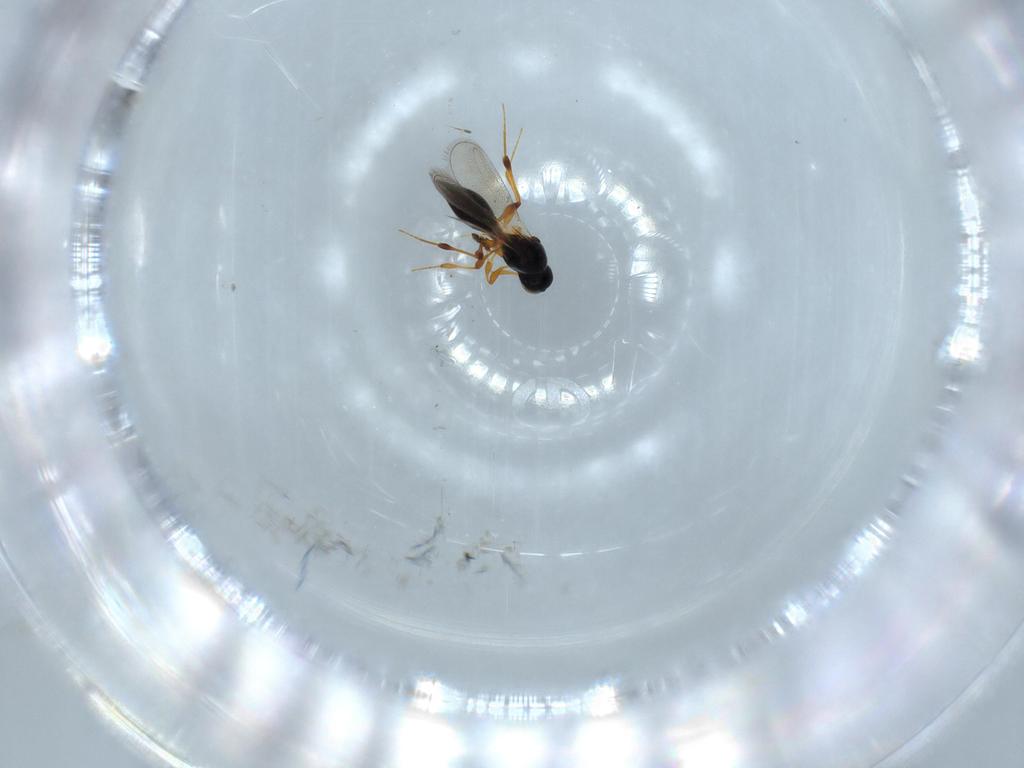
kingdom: Animalia
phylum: Arthropoda
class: Insecta
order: Hymenoptera
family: Platygastridae
